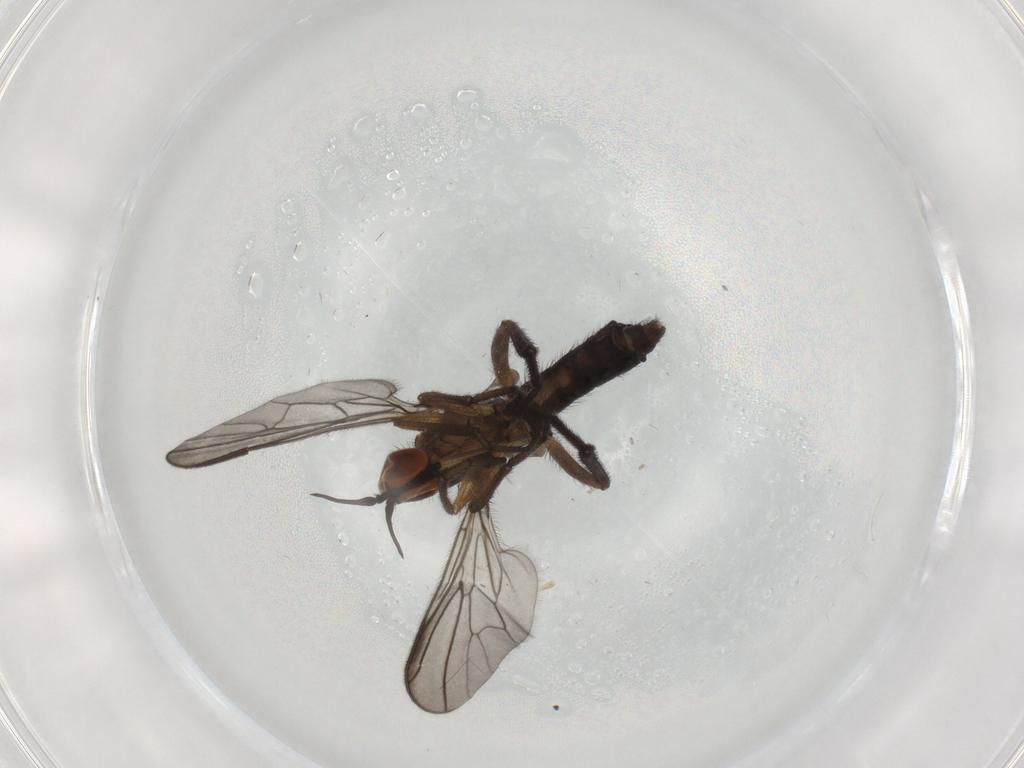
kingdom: Animalia
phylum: Arthropoda
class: Insecta
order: Diptera
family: Empididae
